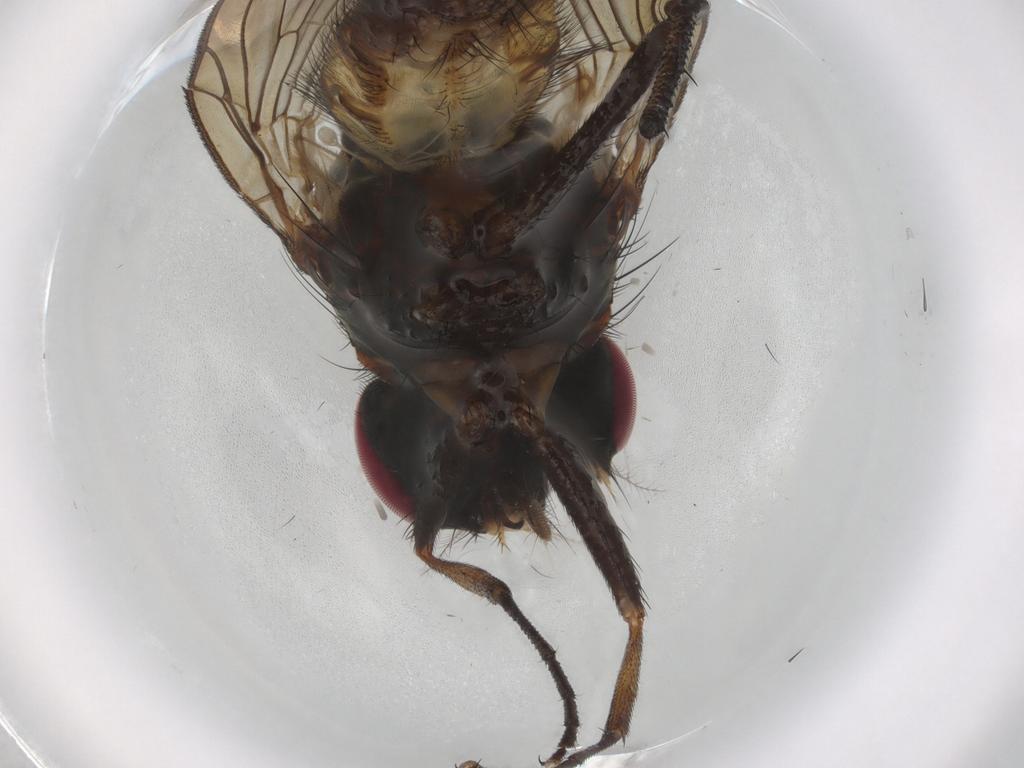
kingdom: Animalia
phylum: Arthropoda
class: Insecta
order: Diptera
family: Anthomyiidae
